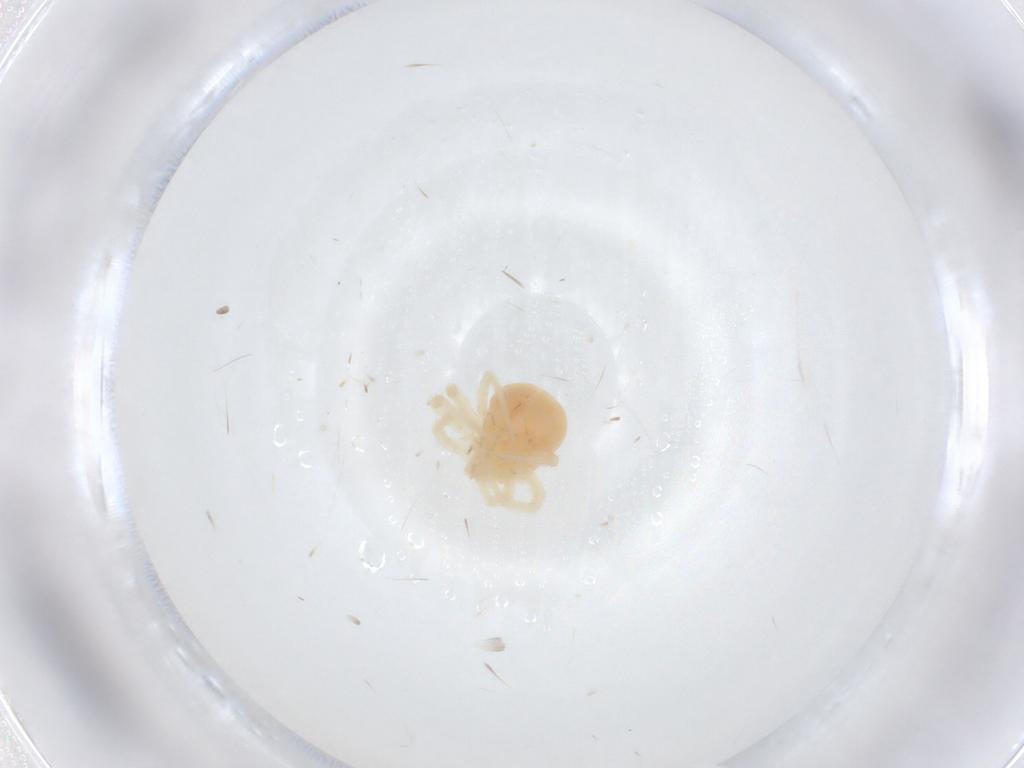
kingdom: Animalia
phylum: Arthropoda
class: Arachnida
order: Trombidiformes
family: Anystidae
